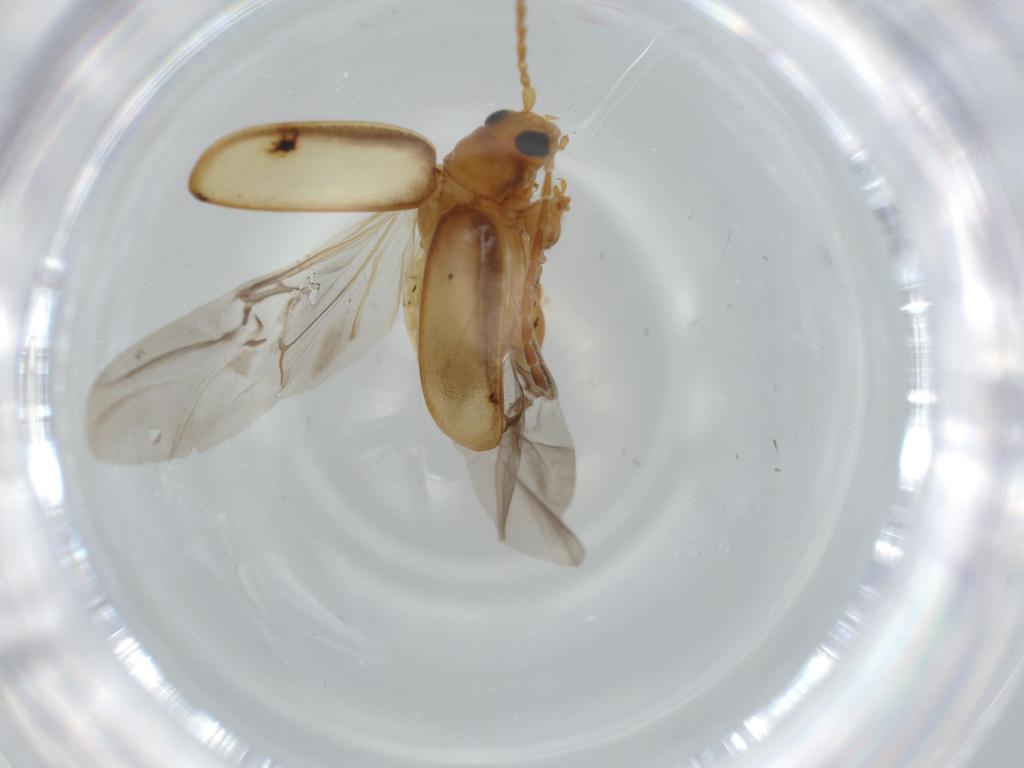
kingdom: Animalia
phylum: Arthropoda
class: Insecta
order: Coleoptera
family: Chrysomelidae
